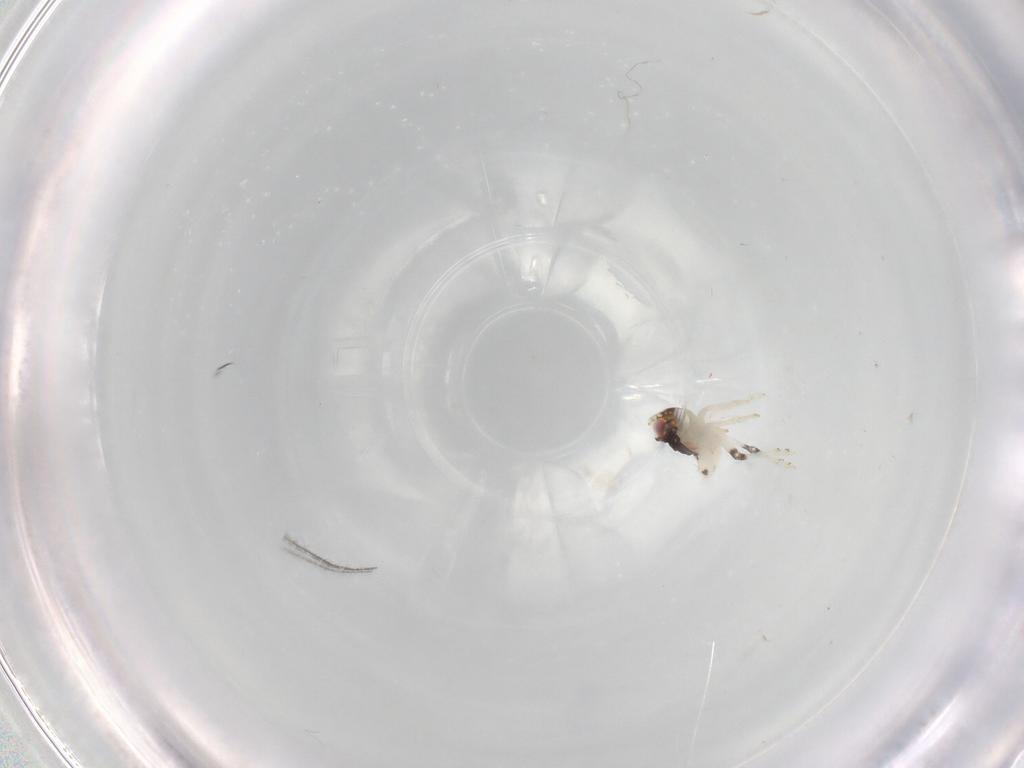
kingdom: Animalia
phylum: Arthropoda
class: Insecta
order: Hemiptera
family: Nogodinidae
